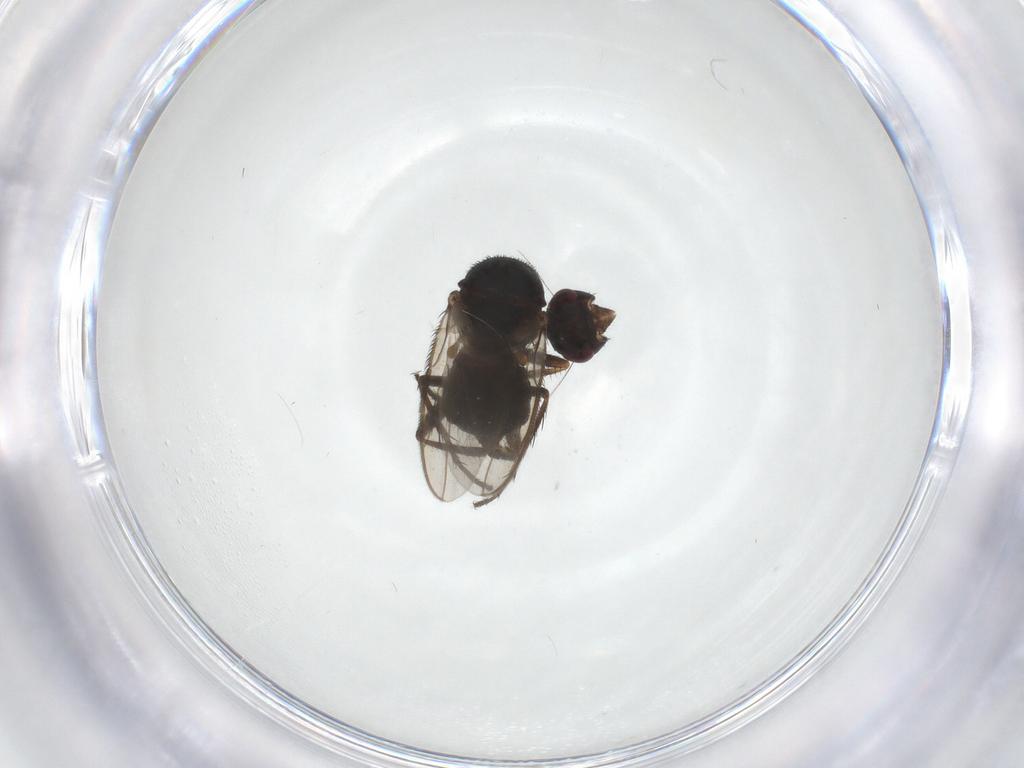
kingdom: Animalia
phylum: Arthropoda
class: Insecta
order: Diptera
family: Sphaeroceridae
